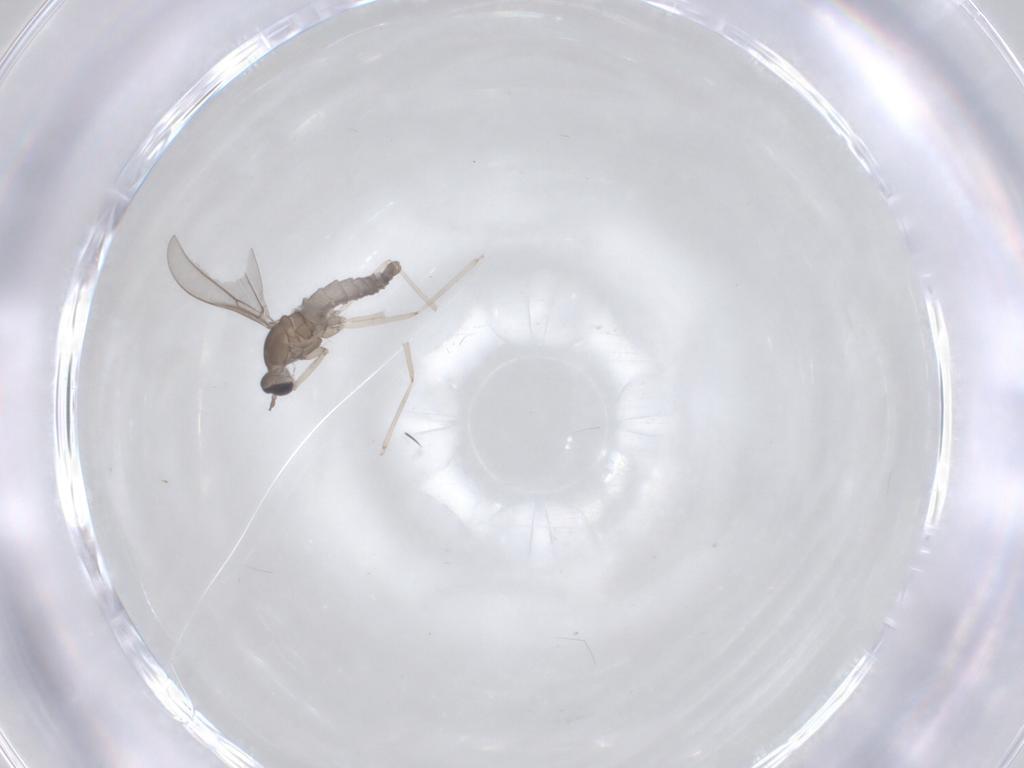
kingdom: Animalia
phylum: Arthropoda
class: Insecta
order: Diptera
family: Cecidomyiidae
